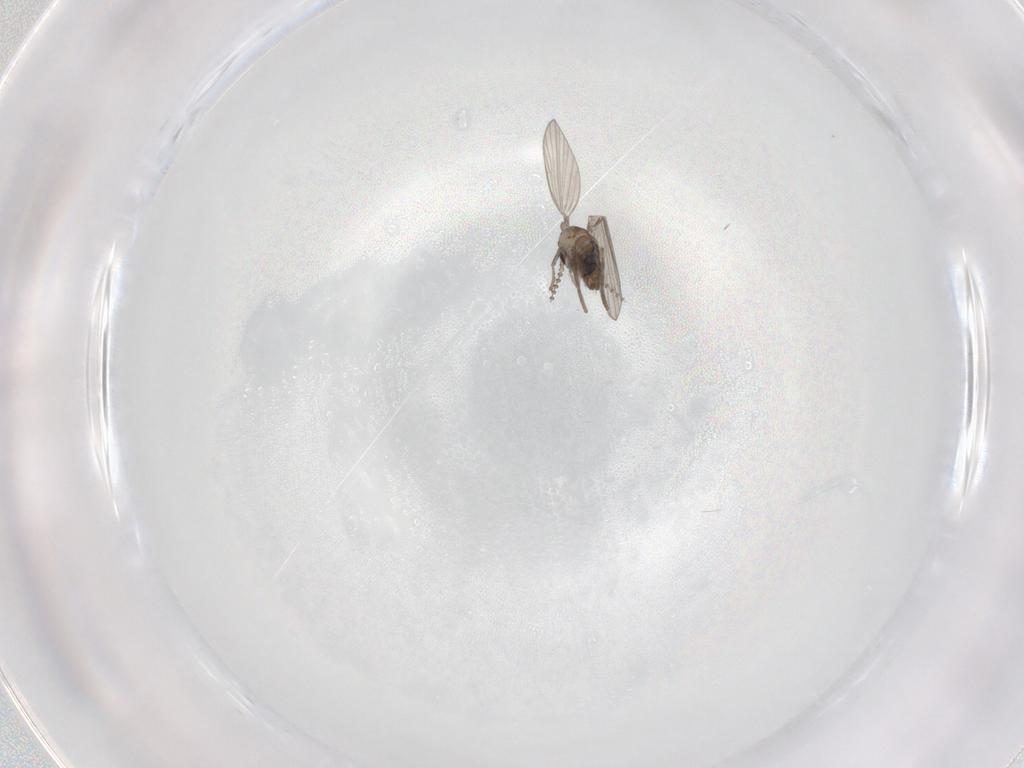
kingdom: Animalia
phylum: Arthropoda
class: Insecta
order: Diptera
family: Psychodidae
